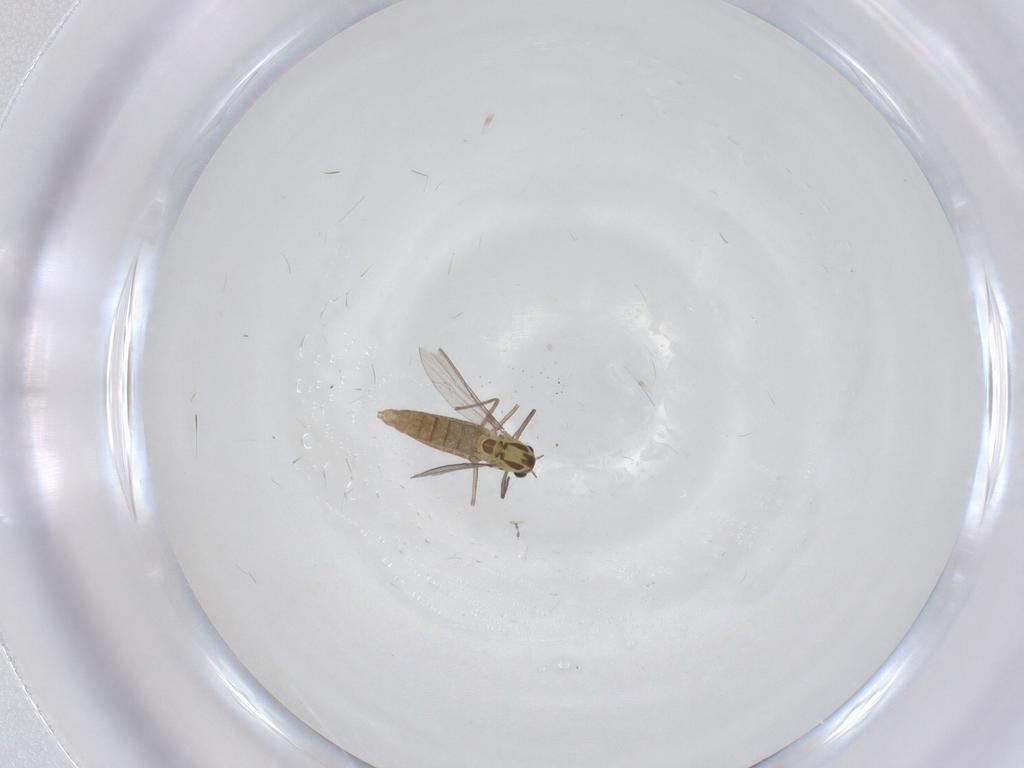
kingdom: Animalia
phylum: Arthropoda
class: Insecta
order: Diptera
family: Chironomidae
